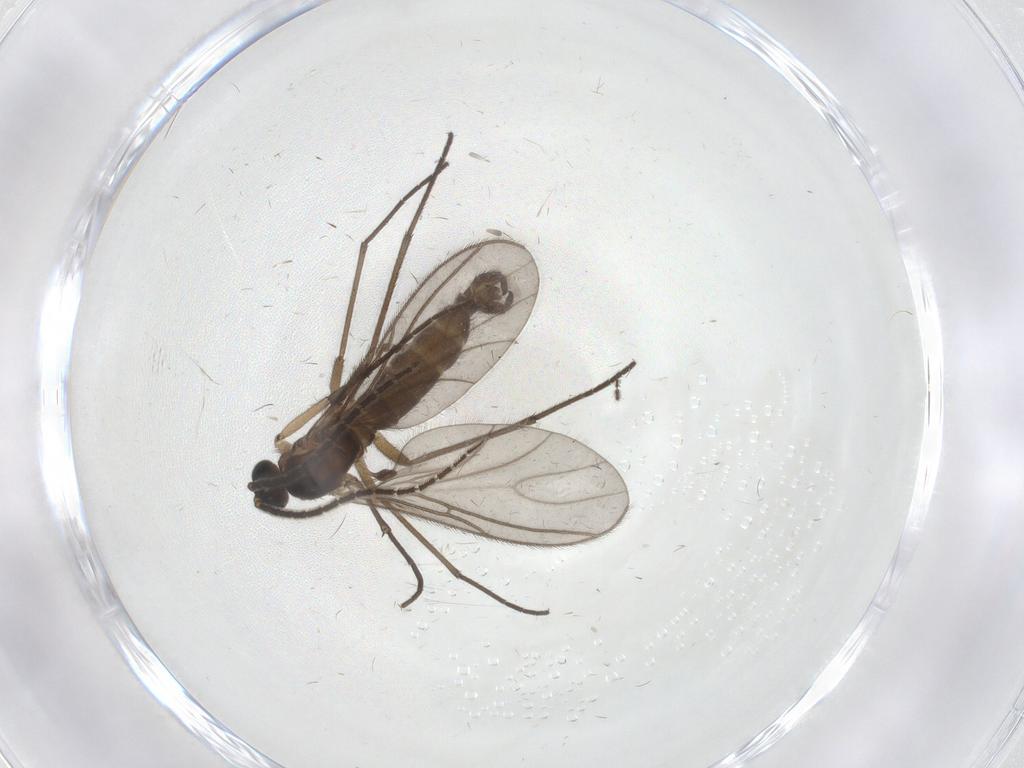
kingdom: Animalia
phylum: Arthropoda
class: Insecta
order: Diptera
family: Sciaridae
